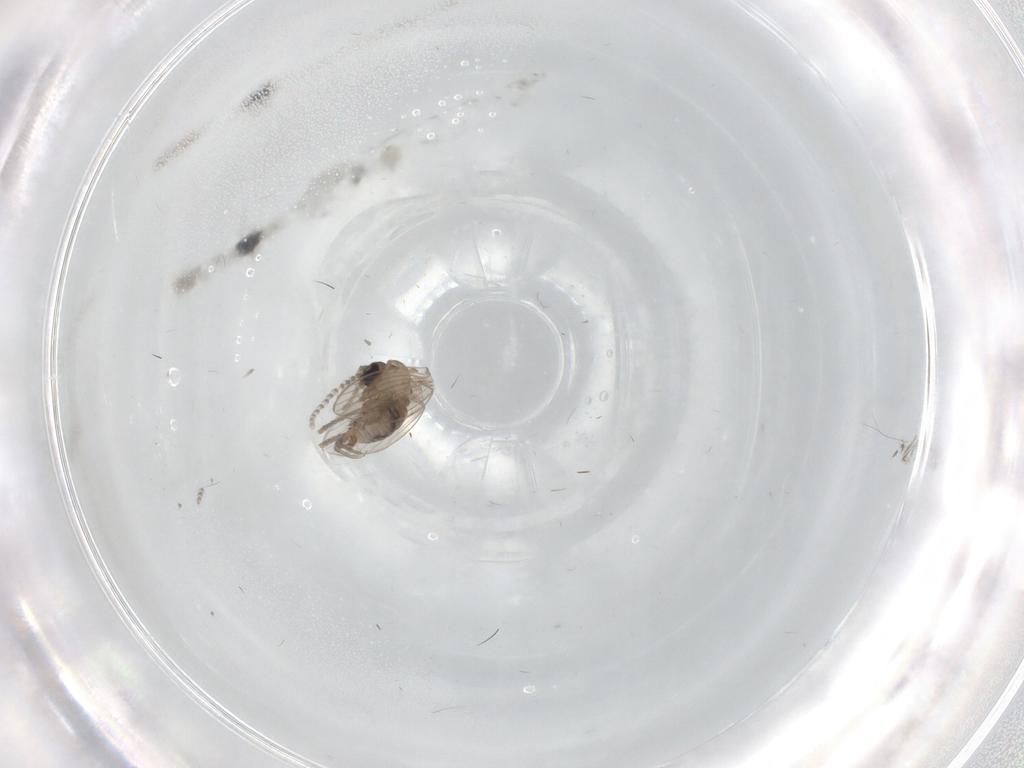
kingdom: Animalia
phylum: Arthropoda
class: Insecta
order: Diptera
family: Psychodidae
